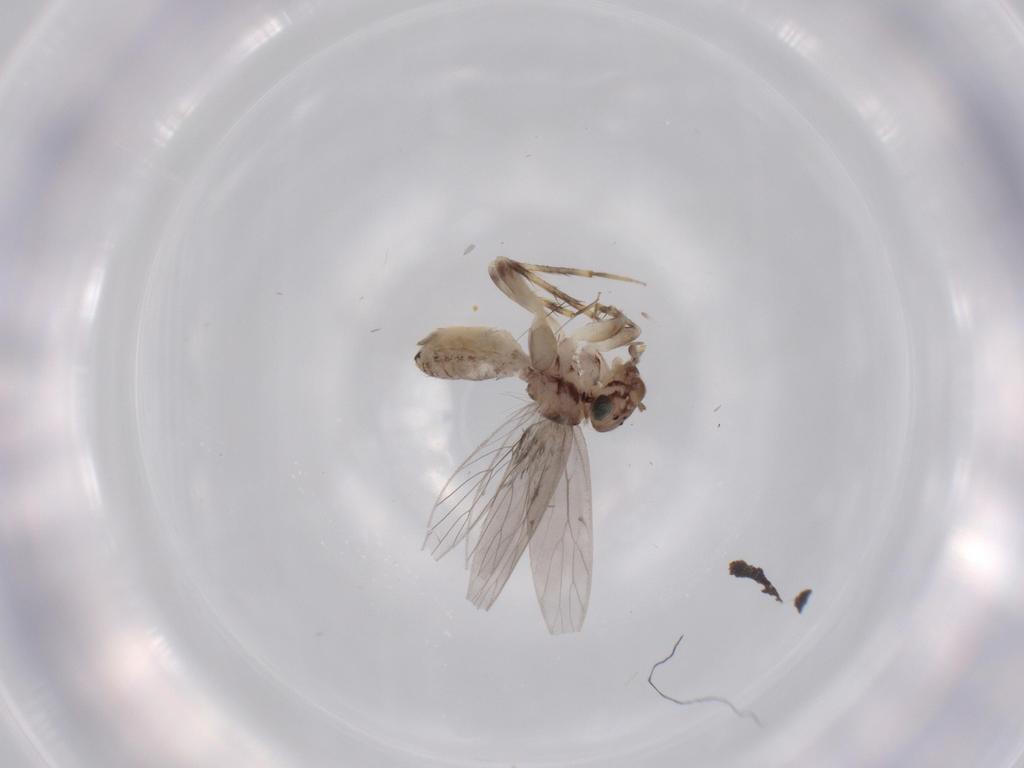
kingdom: Animalia
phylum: Arthropoda
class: Insecta
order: Psocodea
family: Lepidopsocidae
